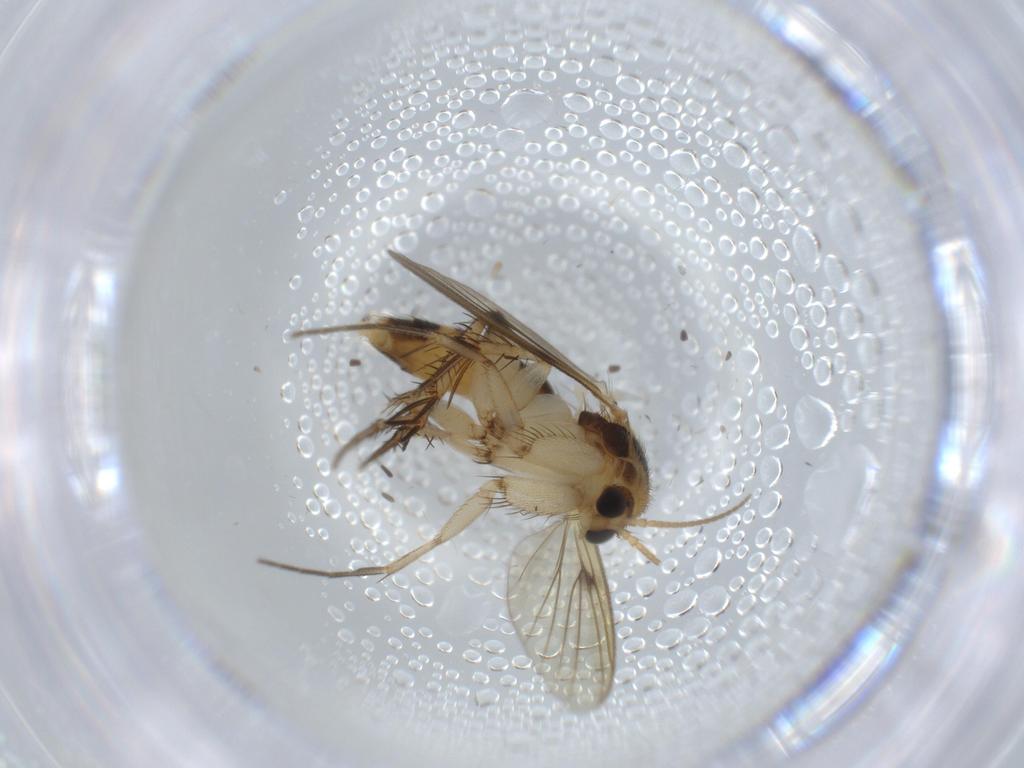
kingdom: Animalia
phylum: Arthropoda
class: Insecta
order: Diptera
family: Mycetophilidae
